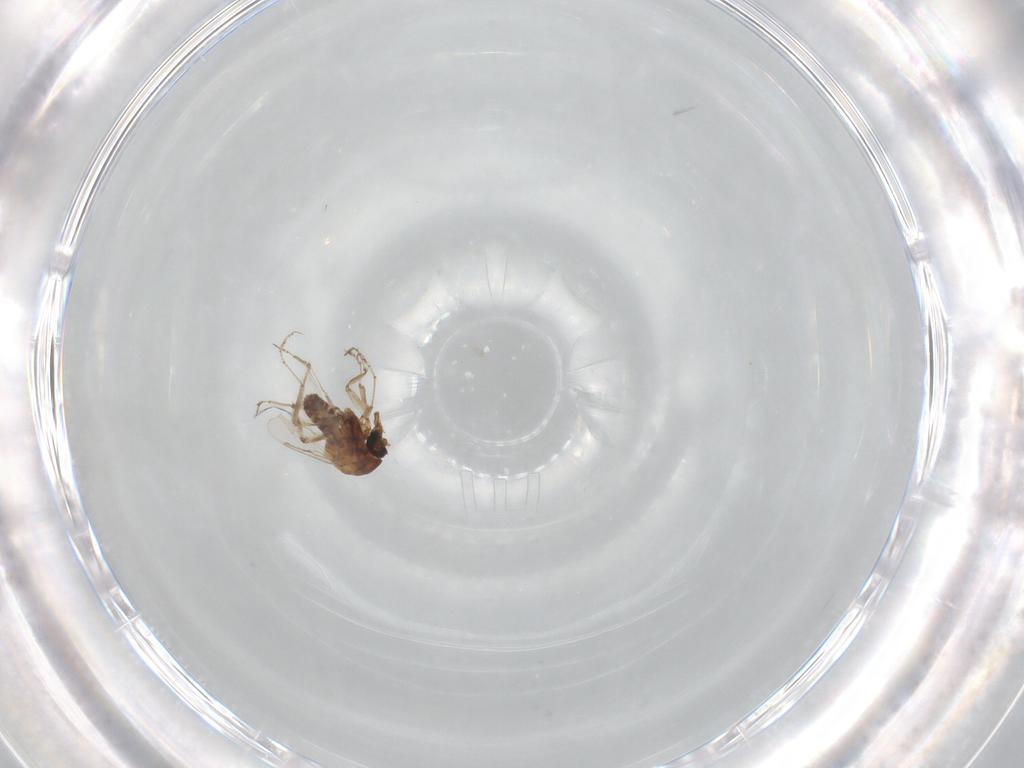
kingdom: Animalia
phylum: Arthropoda
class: Insecta
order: Diptera
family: Ceratopogonidae
